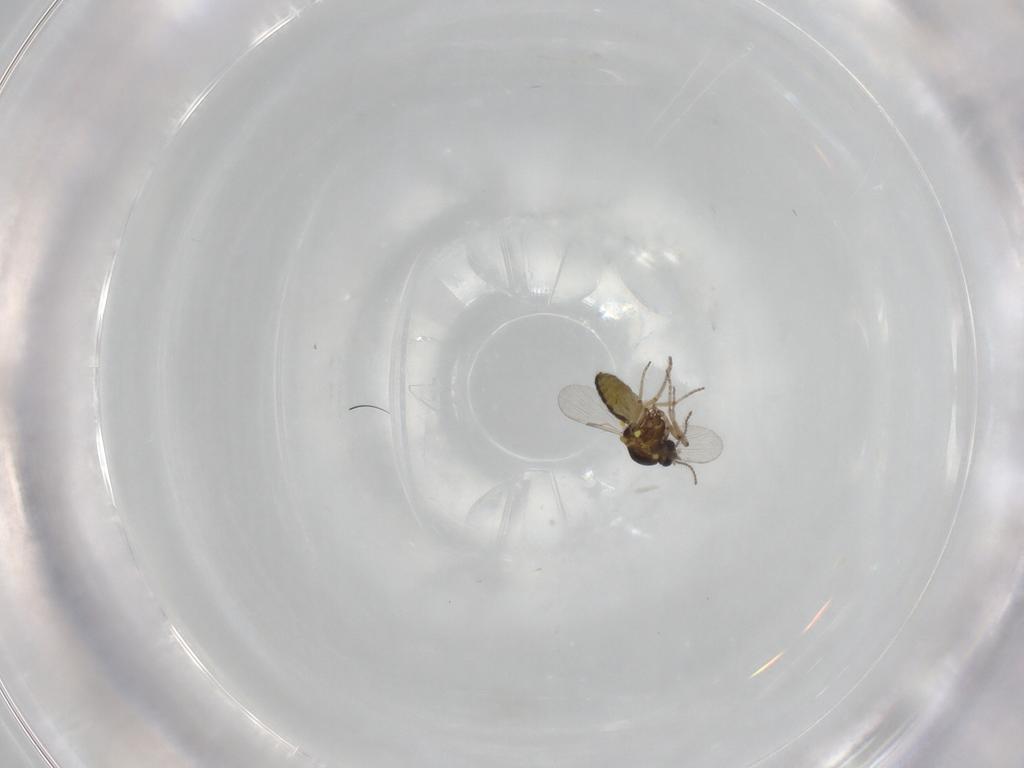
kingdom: Animalia
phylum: Arthropoda
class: Insecta
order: Diptera
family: Ceratopogonidae
